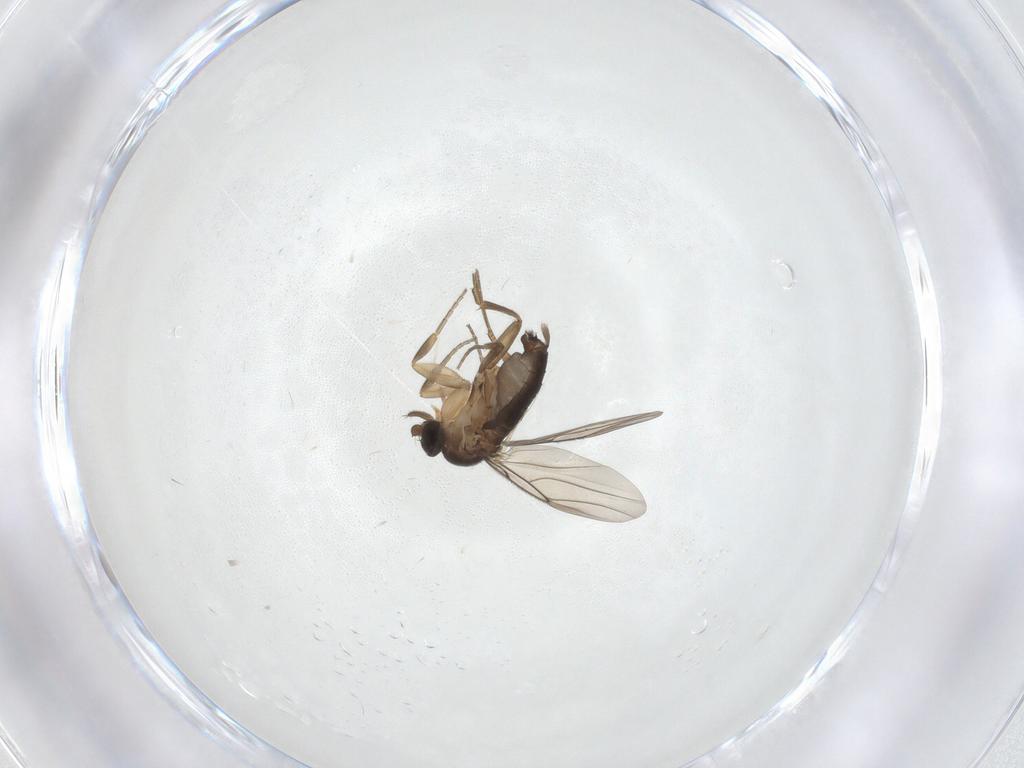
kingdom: Animalia
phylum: Arthropoda
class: Insecta
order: Diptera
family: Phoridae
